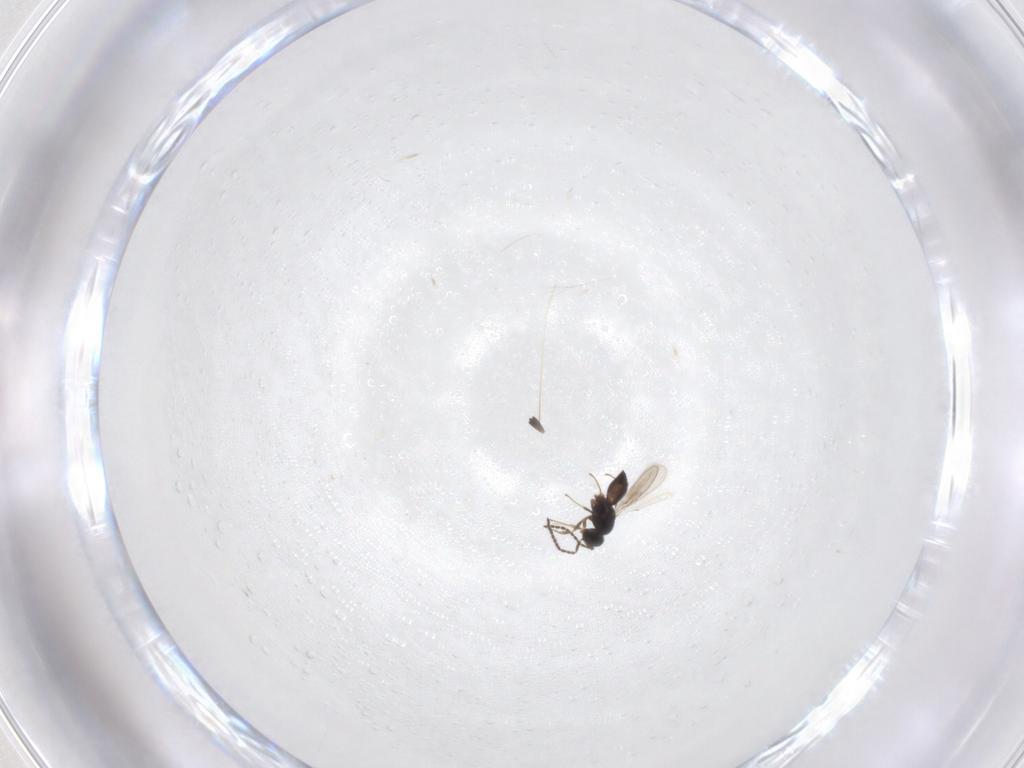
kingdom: Animalia
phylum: Arthropoda
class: Insecta
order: Hymenoptera
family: Scelionidae
